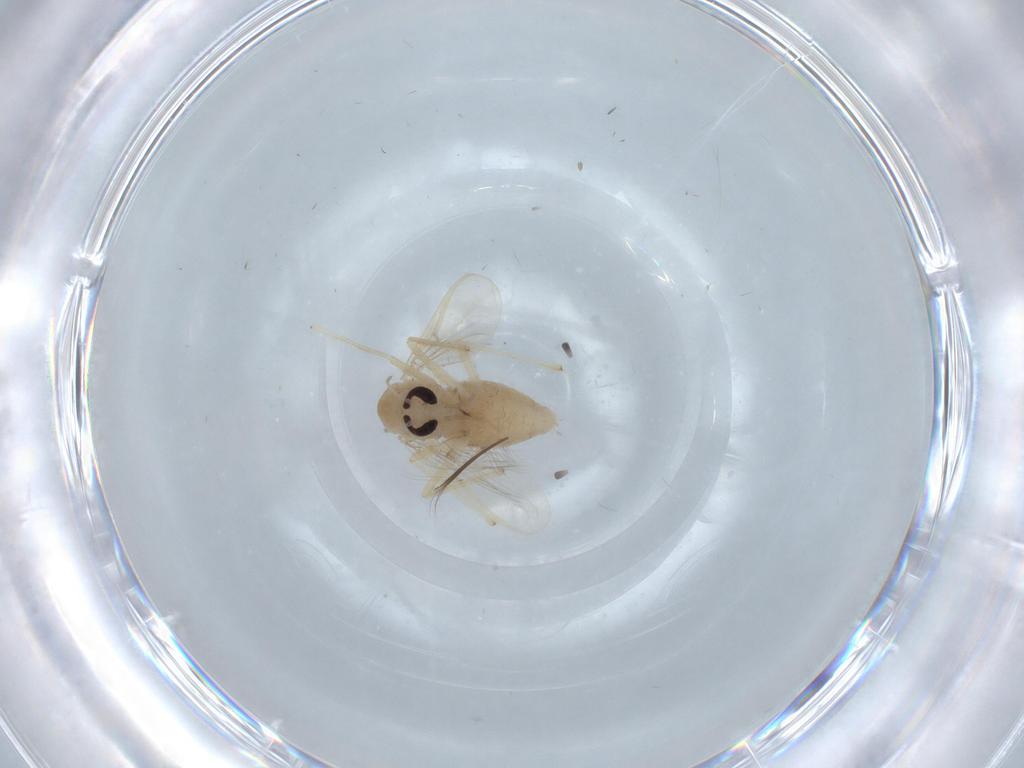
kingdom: Animalia
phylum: Arthropoda
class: Insecta
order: Diptera
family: Chironomidae
